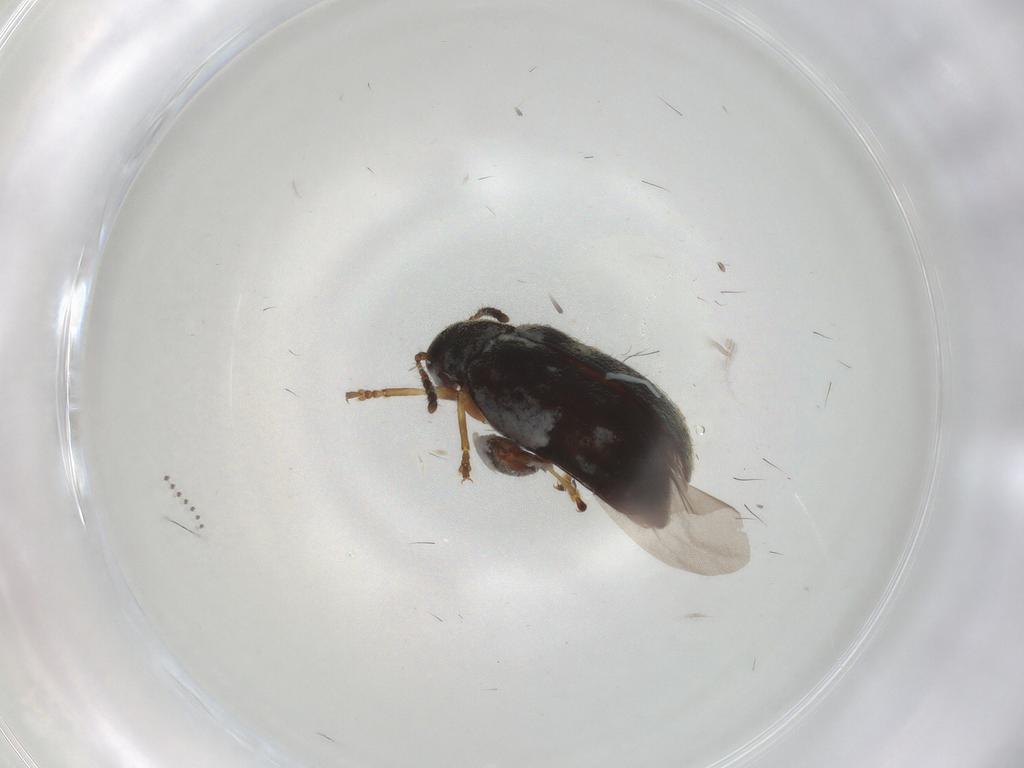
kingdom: Animalia
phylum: Arthropoda
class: Insecta
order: Coleoptera
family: Chrysomelidae
